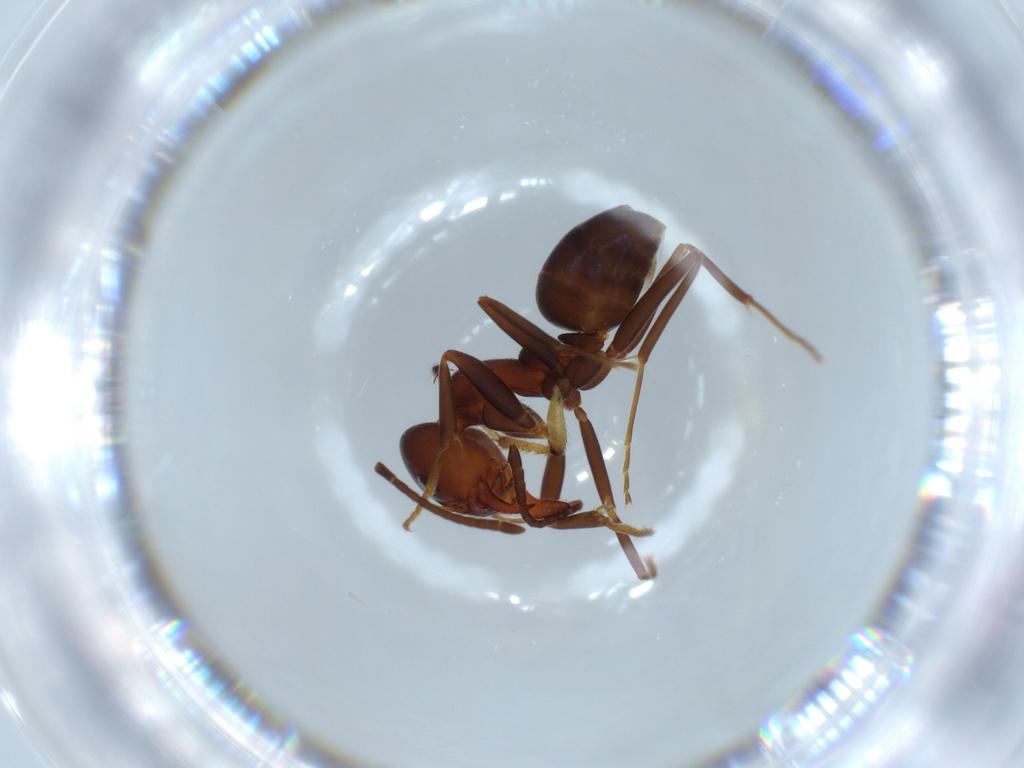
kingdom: Animalia
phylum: Arthropoda
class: Insecta
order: Hymenoptera
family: Formicidae
